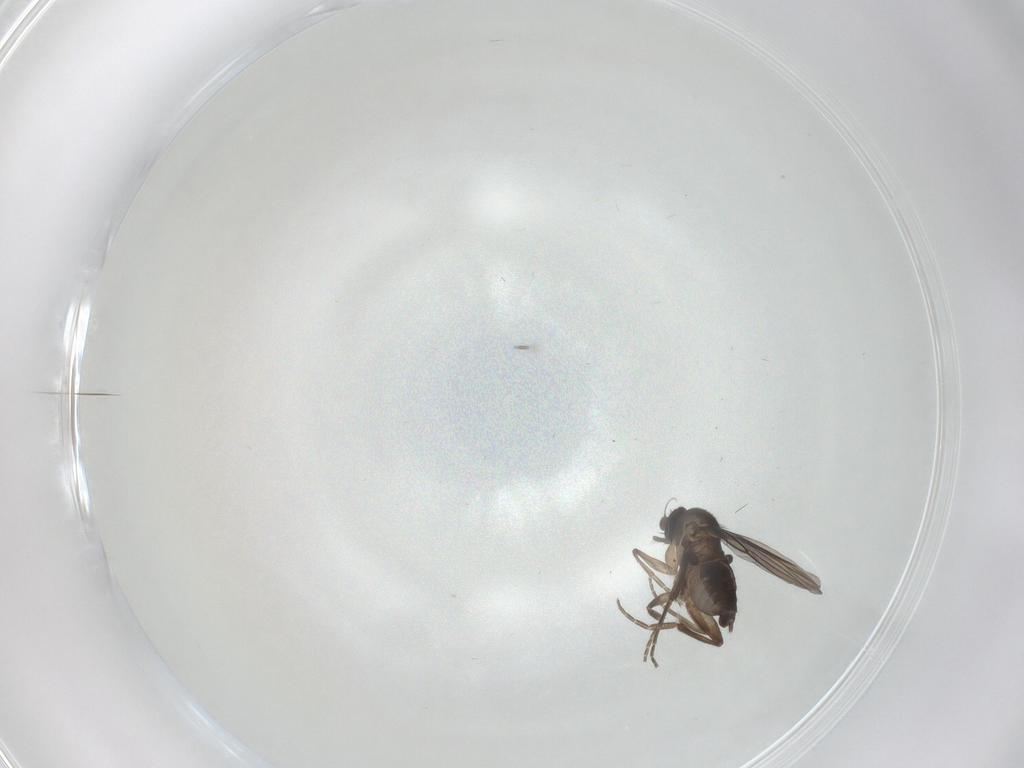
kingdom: Animalia
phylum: Arthropoda
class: Insecta
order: Diptera
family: Phoridae
